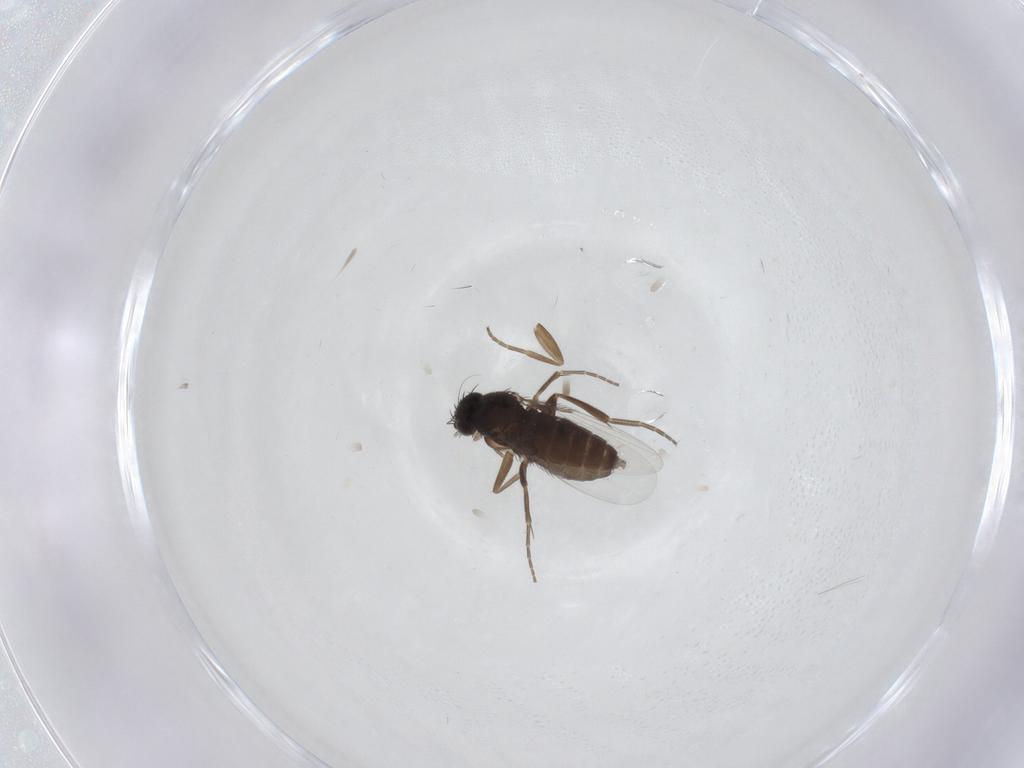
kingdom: Animalia
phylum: Arthropoda
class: Insecta
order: Diptera
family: Phoridae
